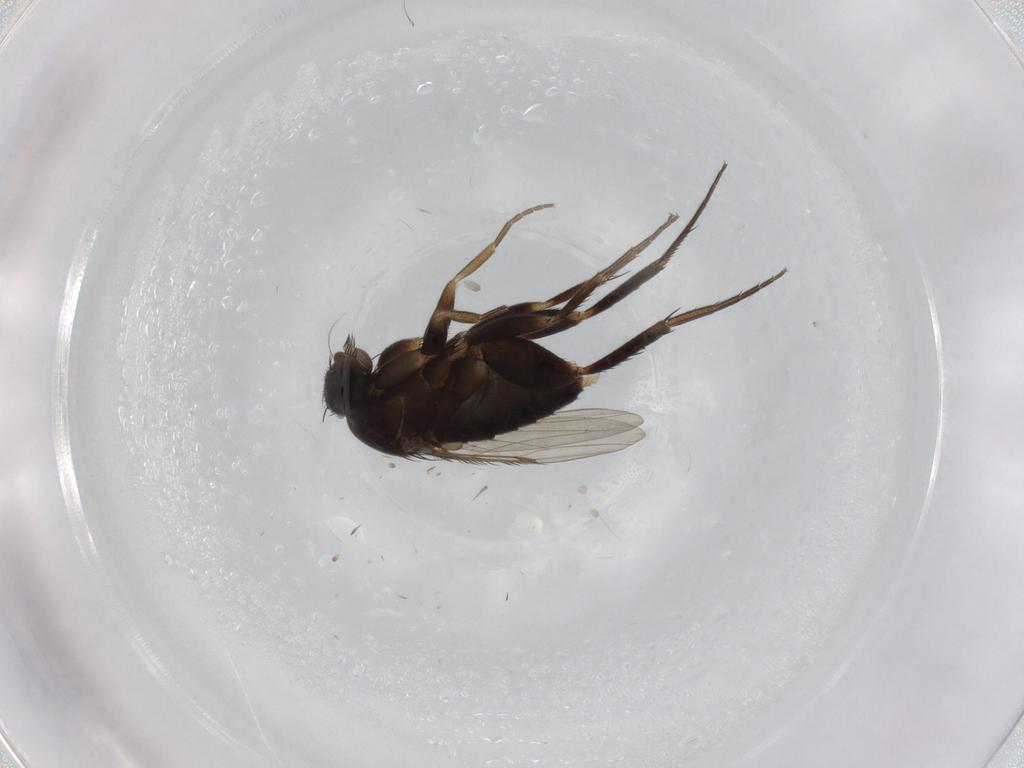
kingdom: Animalia
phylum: Arthropoda
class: Insecta
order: Diptera
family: Phoridae
